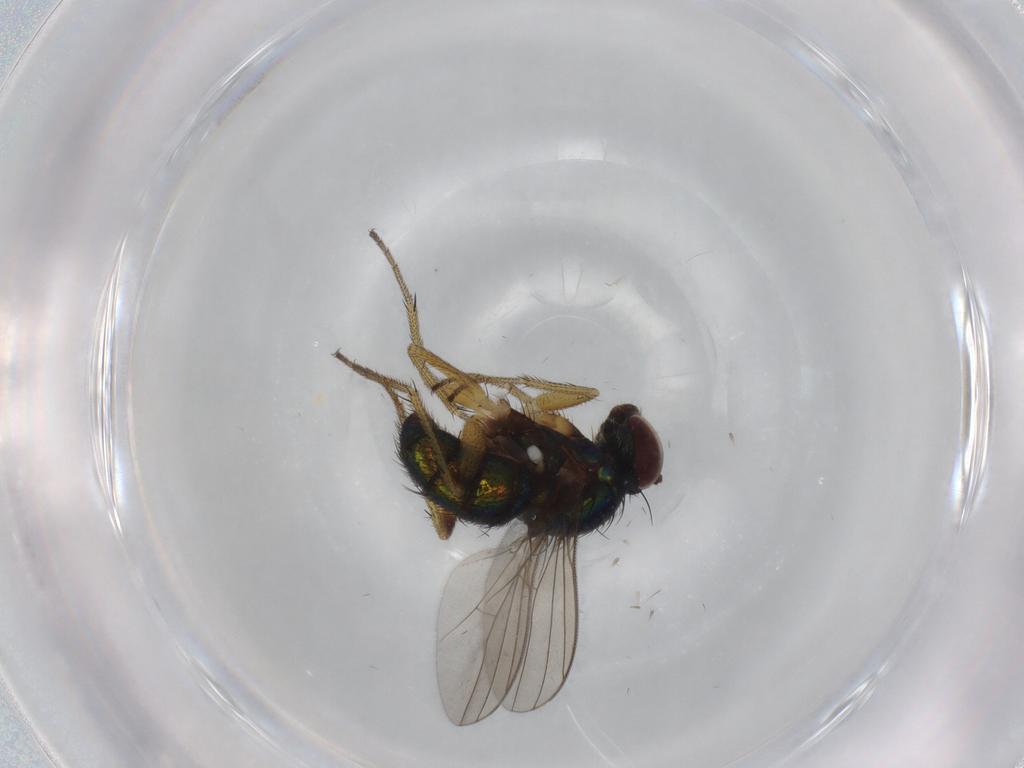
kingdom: Animalia
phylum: Arthropoda
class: Insecta
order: Diptera
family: Dolichopodidae
